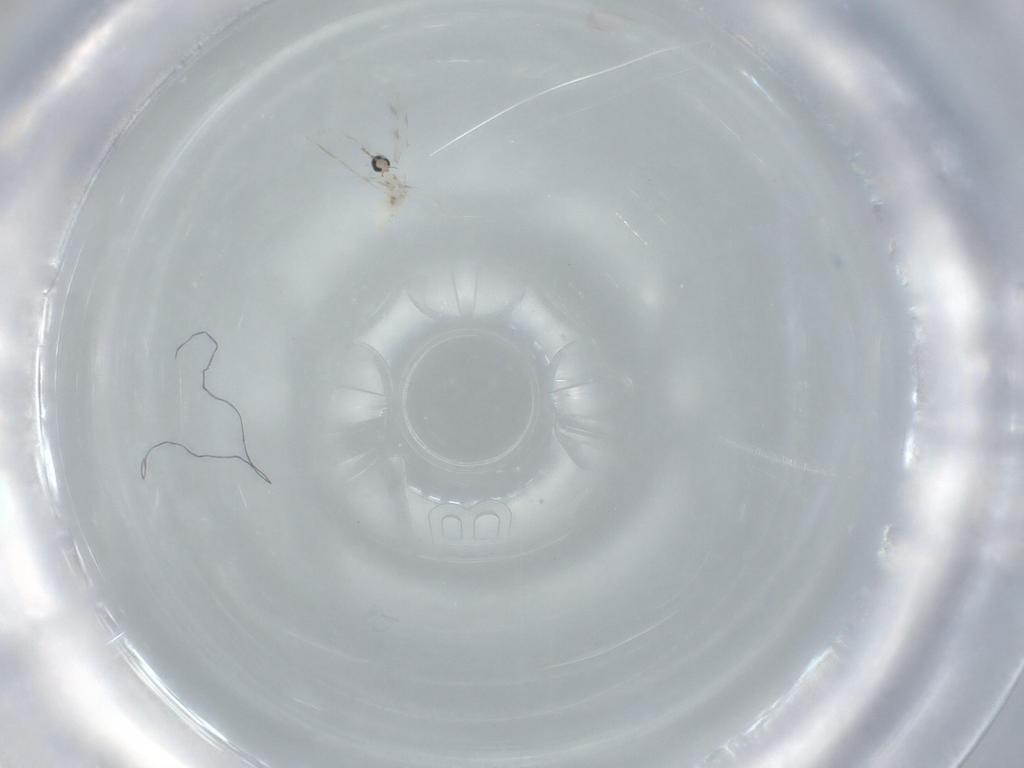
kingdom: Animalia
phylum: Arthropoda
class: Insecta
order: Diptera
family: Cecidomyiidae
